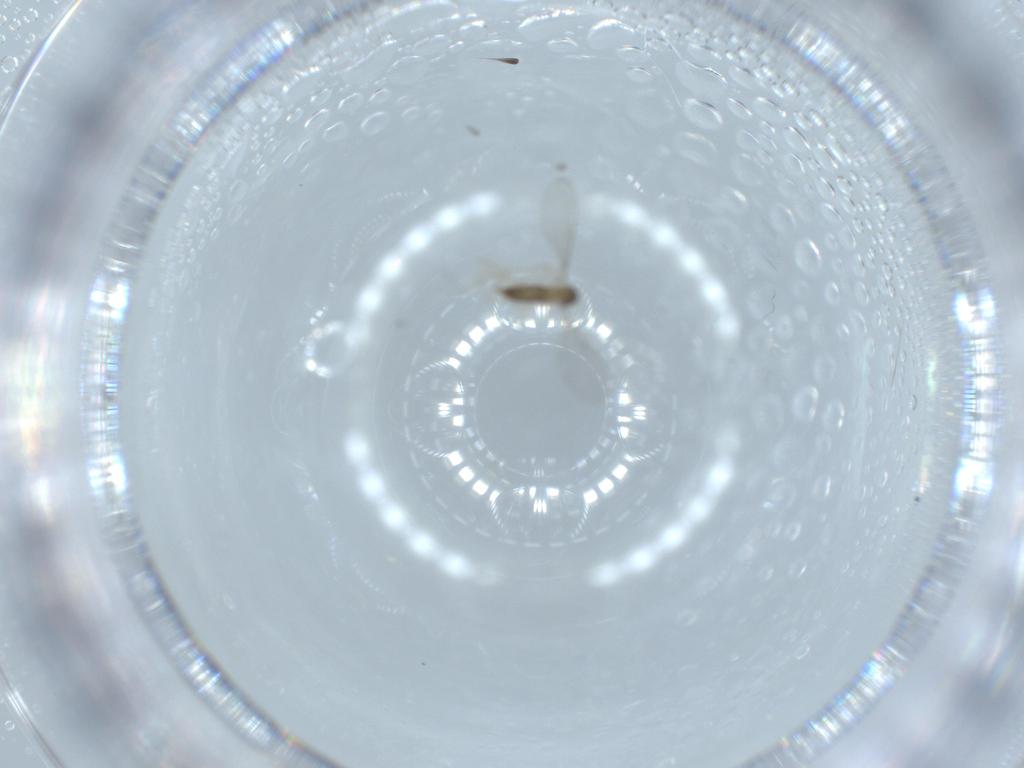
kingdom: Animalia
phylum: Arthropoda
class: Insecta
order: Diptera
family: Cecidomyiidae
